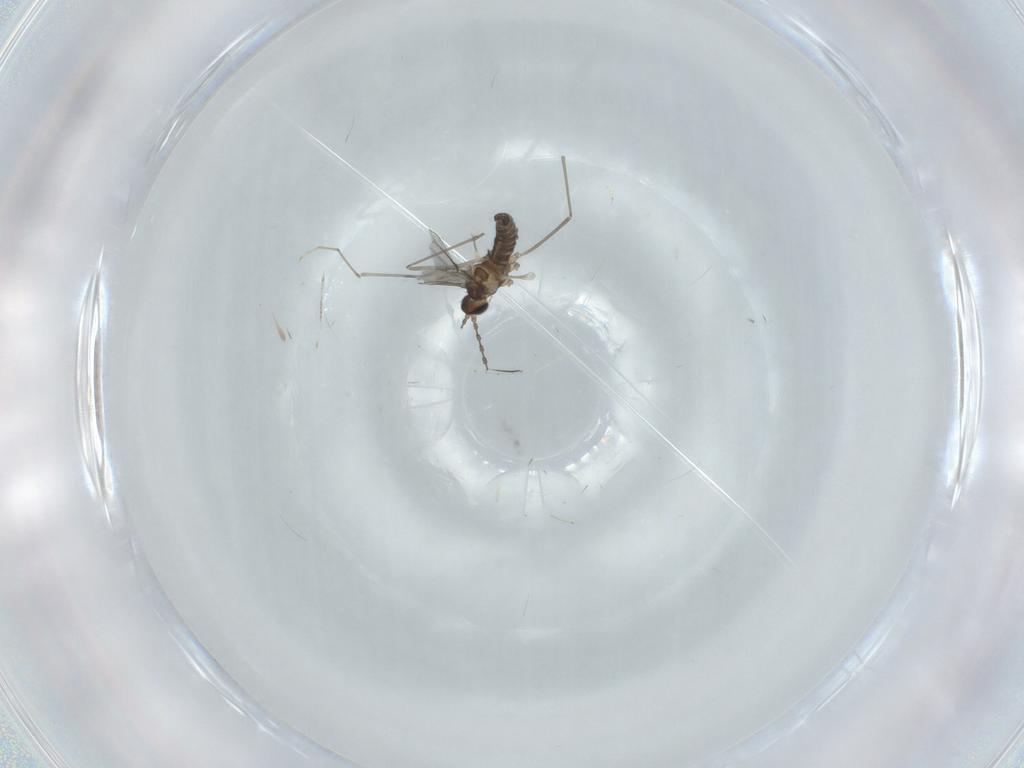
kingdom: Animalia
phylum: Arthropoda
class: Insecta
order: Diptera
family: Cecidomyiidae
